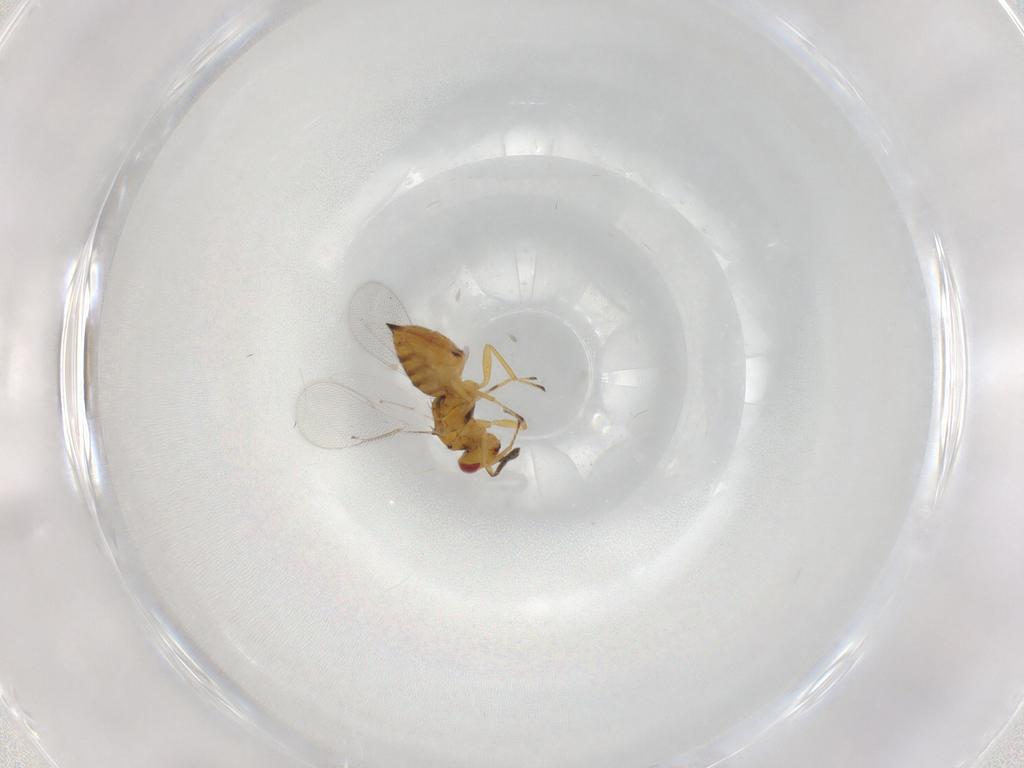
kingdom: Animalia
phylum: Arthropoda
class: Insecta
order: Hymenoptera
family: Eulophidae
